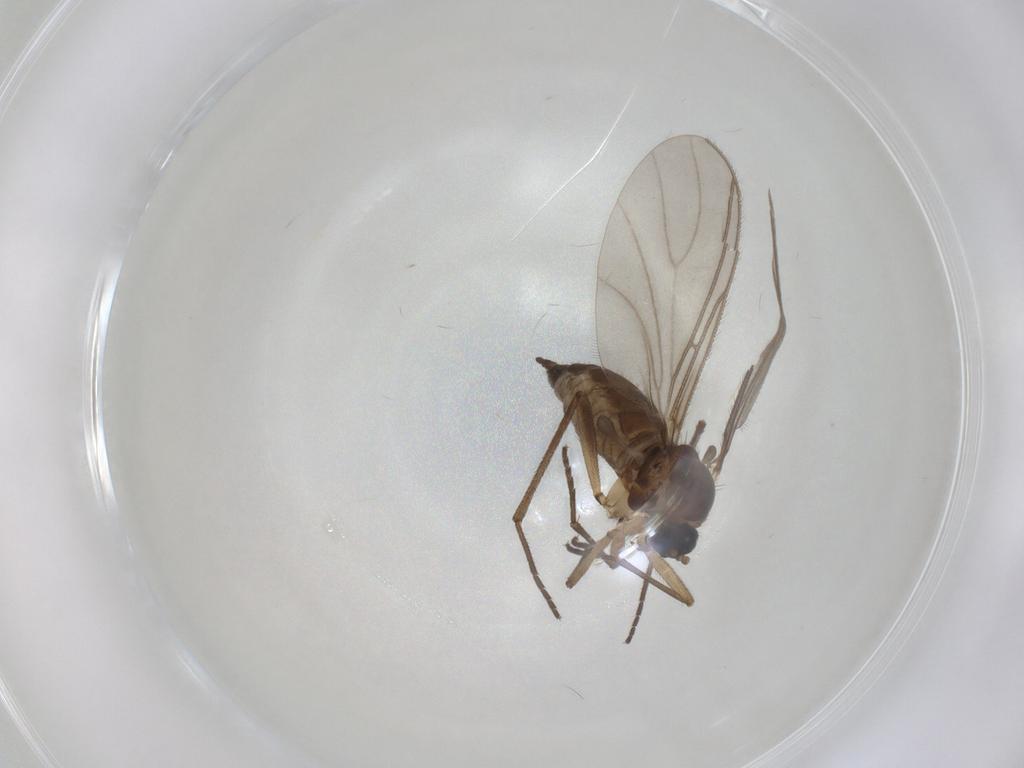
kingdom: Animalia
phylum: Arthropoda
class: Insecta
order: Diptera
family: Sciaridae
